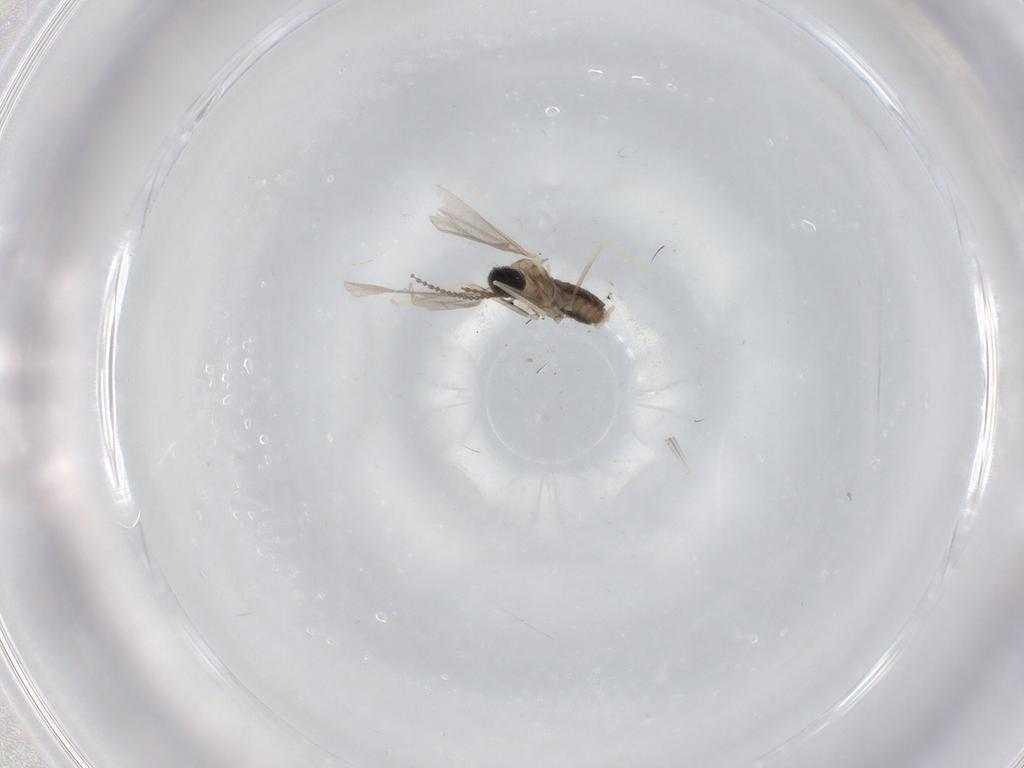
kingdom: Animalia
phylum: Arthropoda
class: Insecta
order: Diptera
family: Cecidomyiidae
